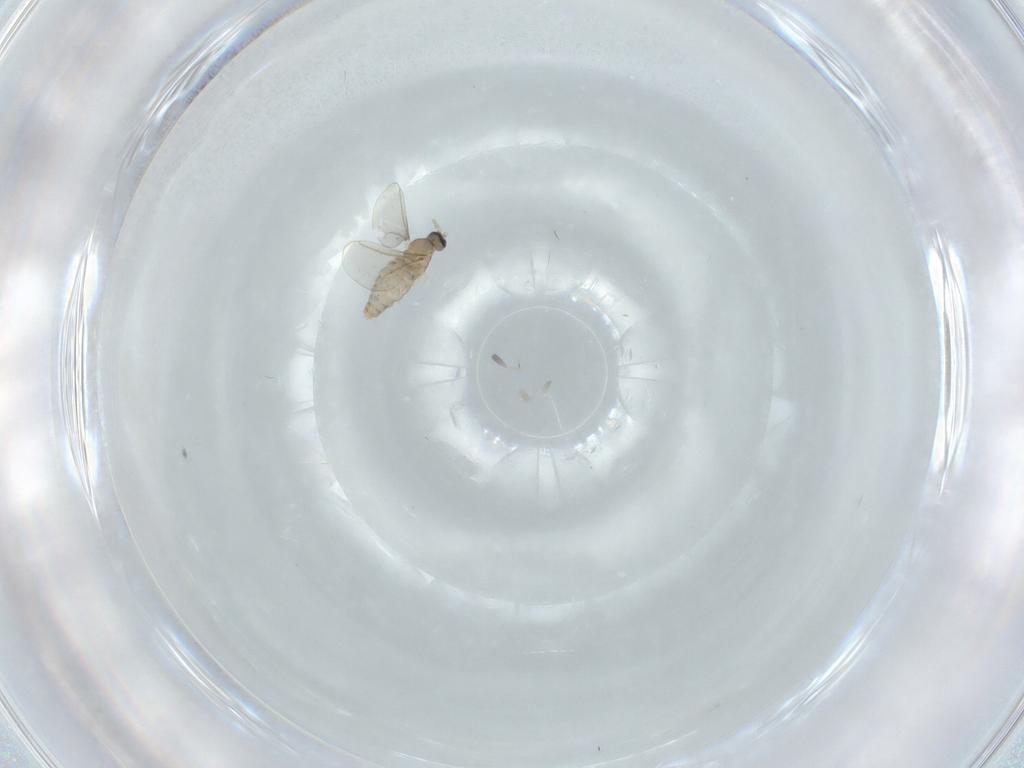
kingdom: Animalia
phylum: Arthropoda
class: Insecta
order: Diptera
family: Cecidomyiidae
